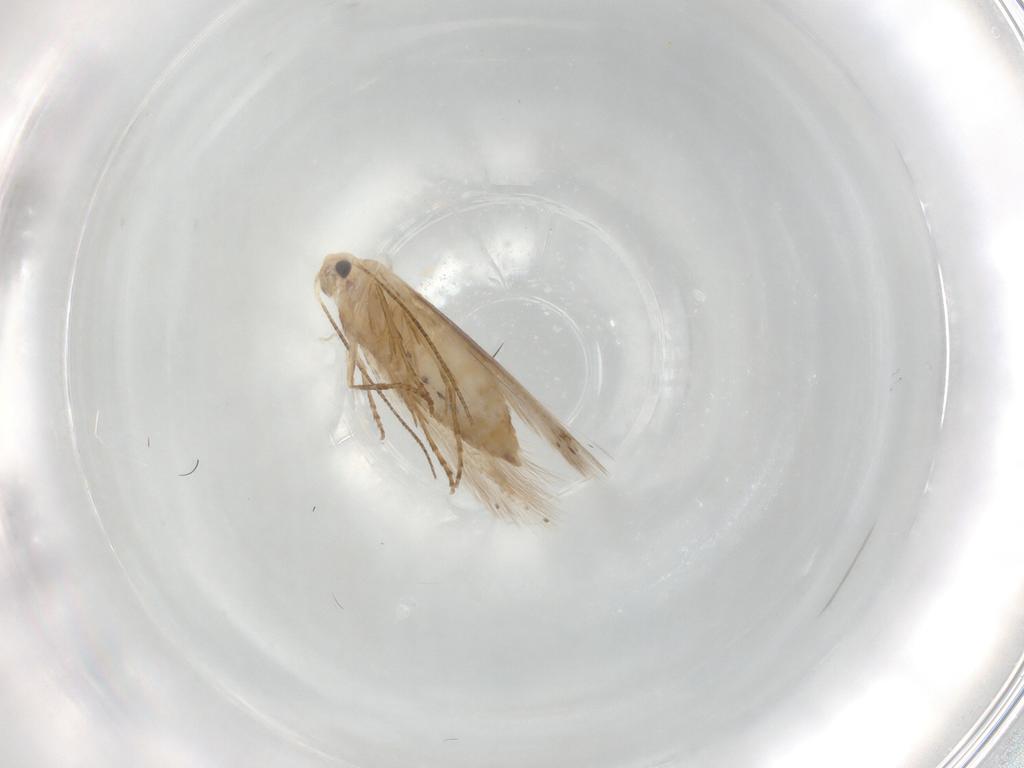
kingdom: Animalia
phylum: Arthropoda
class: Insecta
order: Lepidoptera
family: Bucculatricidae
